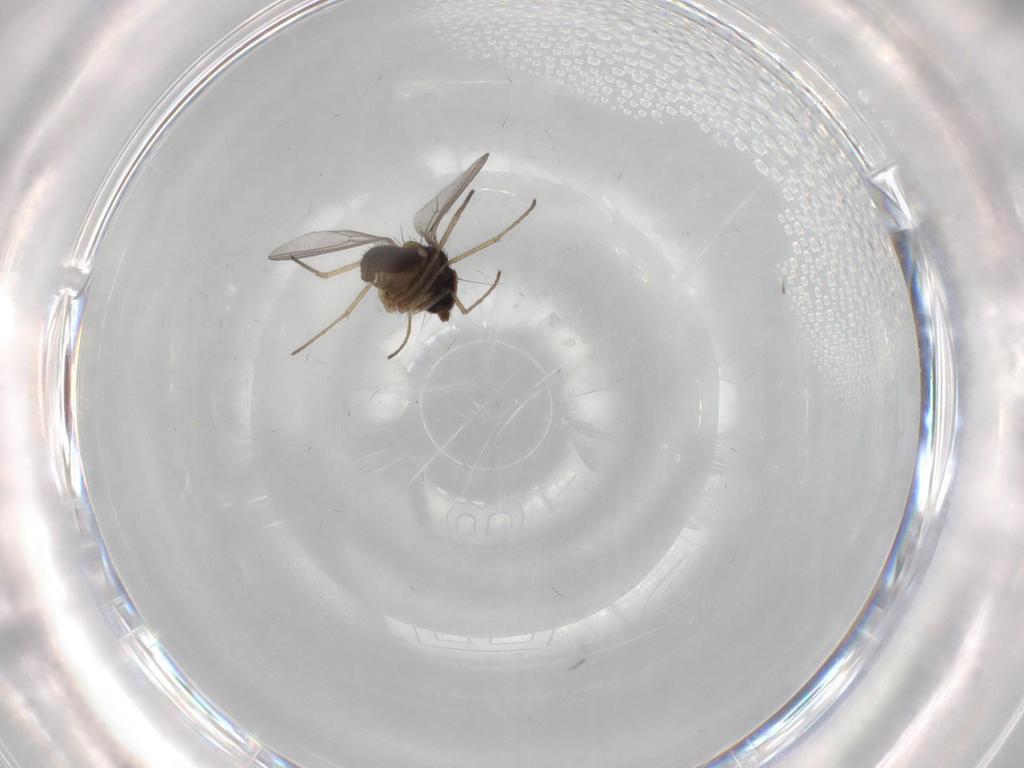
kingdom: Animalia
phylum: Arthropoda
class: Insecta
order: Diptera
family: Dolichopodidae
